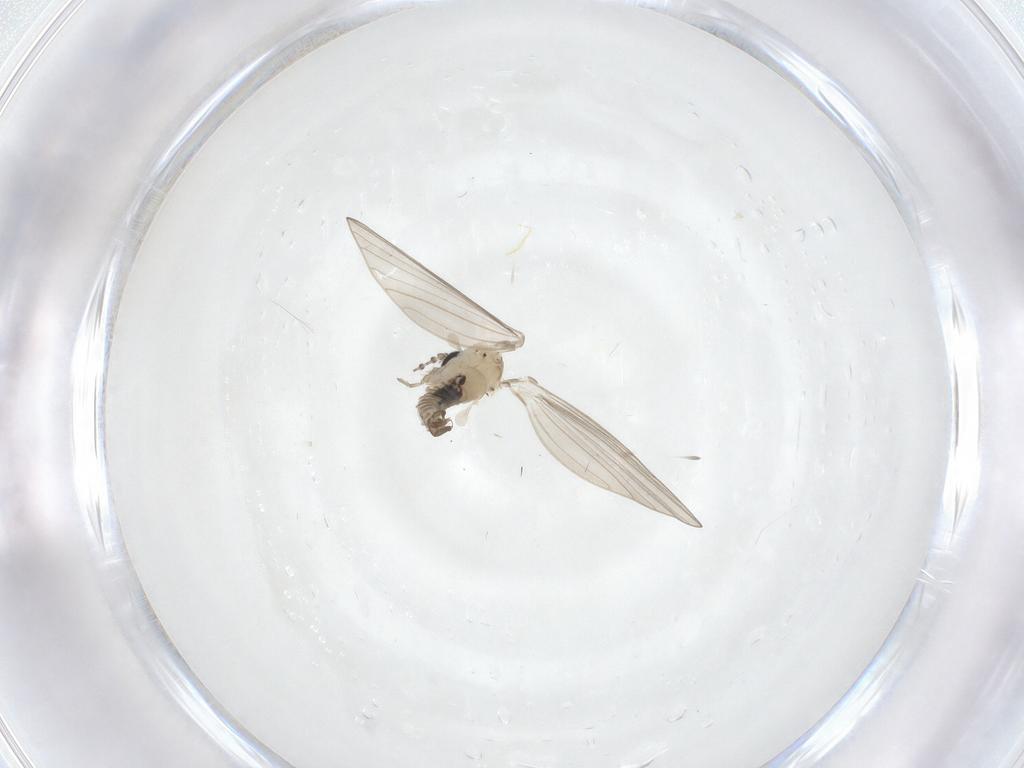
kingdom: Animalia
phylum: Arthropoda
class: Insecta
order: Diptera
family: Psychodidae
